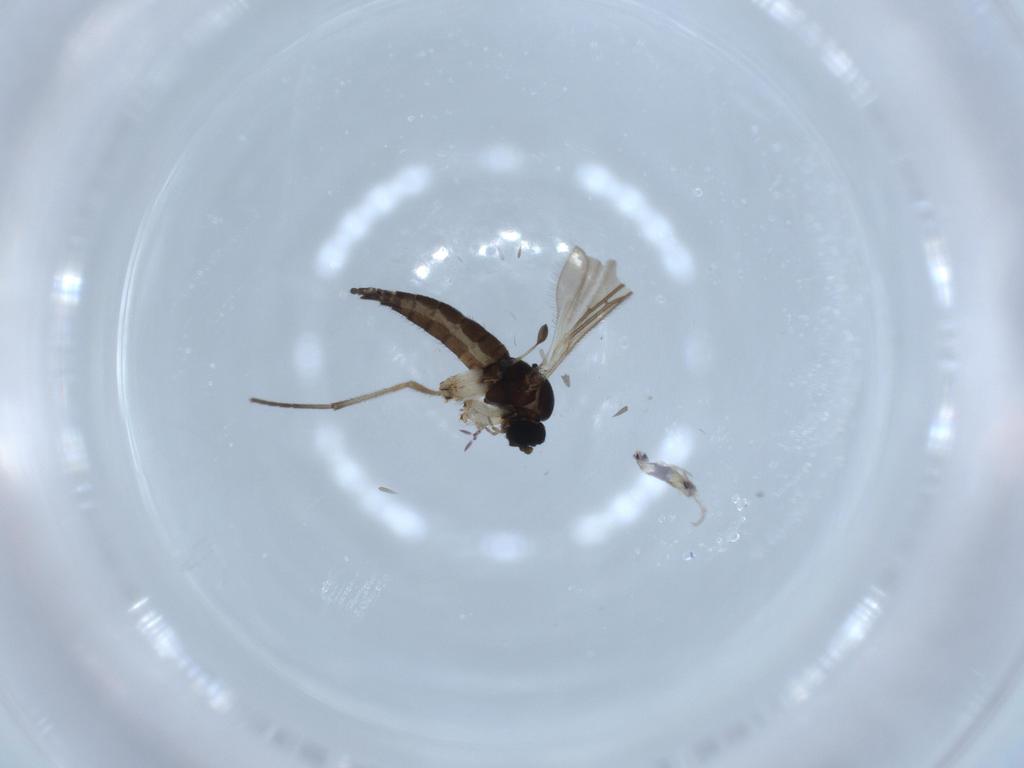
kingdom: Animalia
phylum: Arthropoda
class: Insecta
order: Diptera
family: Sciaridae
